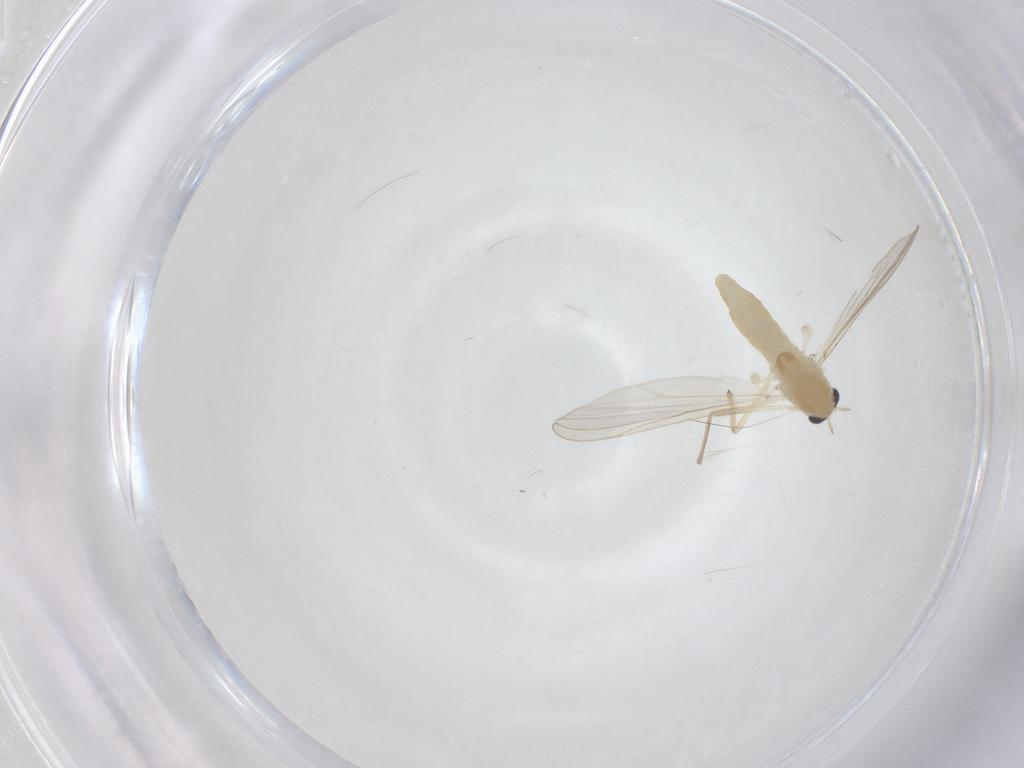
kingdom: Animalia
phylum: Arthropoda
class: Insecta
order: Diptera
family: Chironomidae
